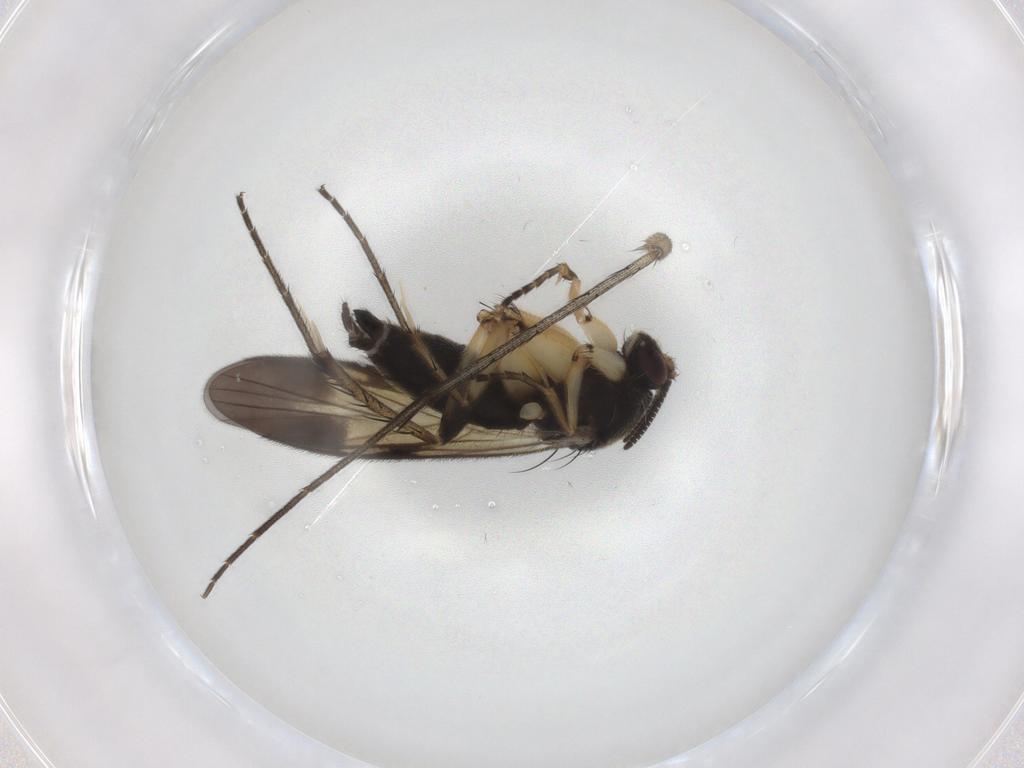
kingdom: Animalia
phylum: Arthropoda
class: Insecta
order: Diptera
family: Mycetophilidae
